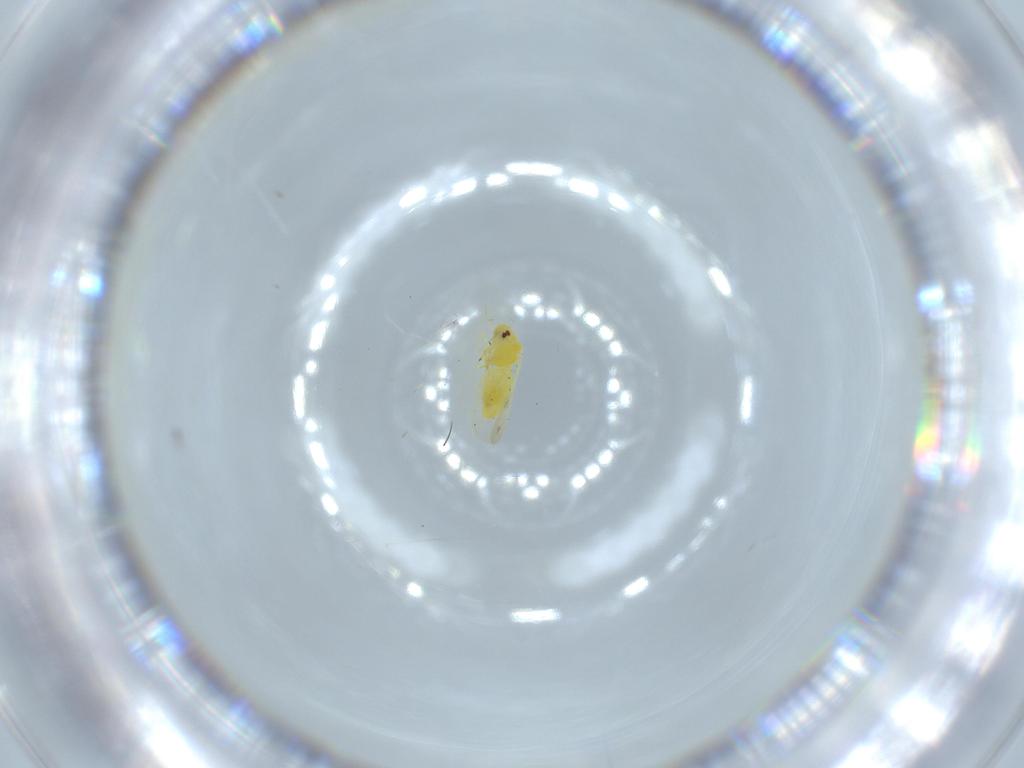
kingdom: Animalia
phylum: Arthropoda
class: Insecta
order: Hemiptera
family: Aleyrodidae
